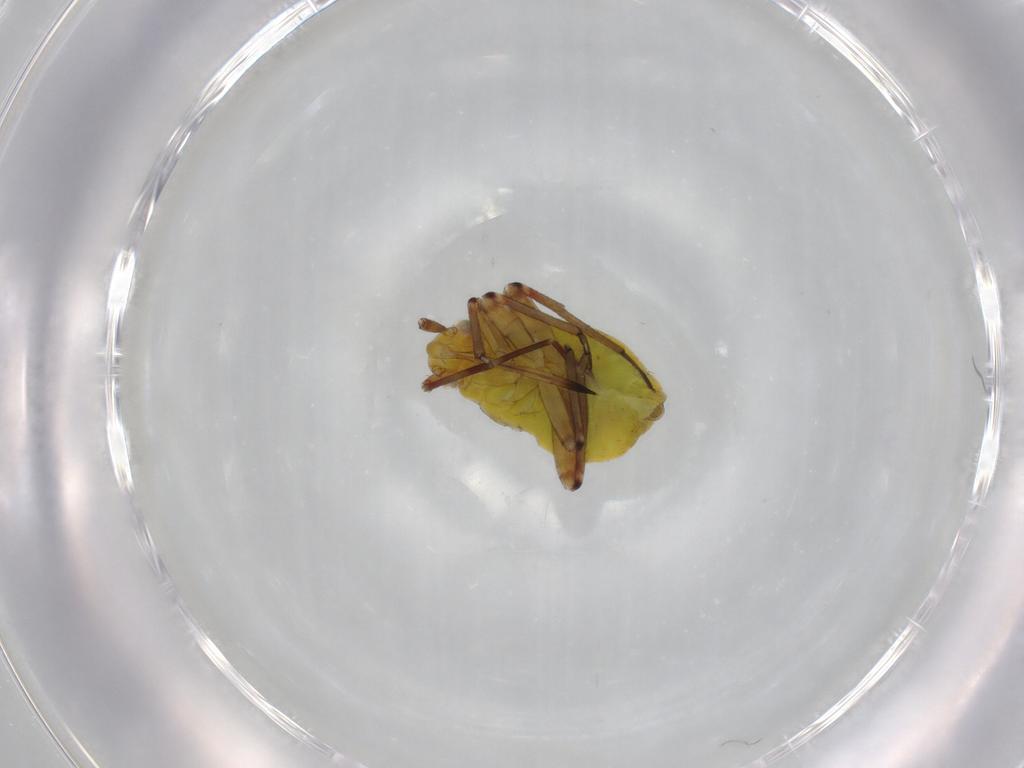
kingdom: Animalia
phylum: Arthropoda
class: Insecta
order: Hemiptera
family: Miridae
